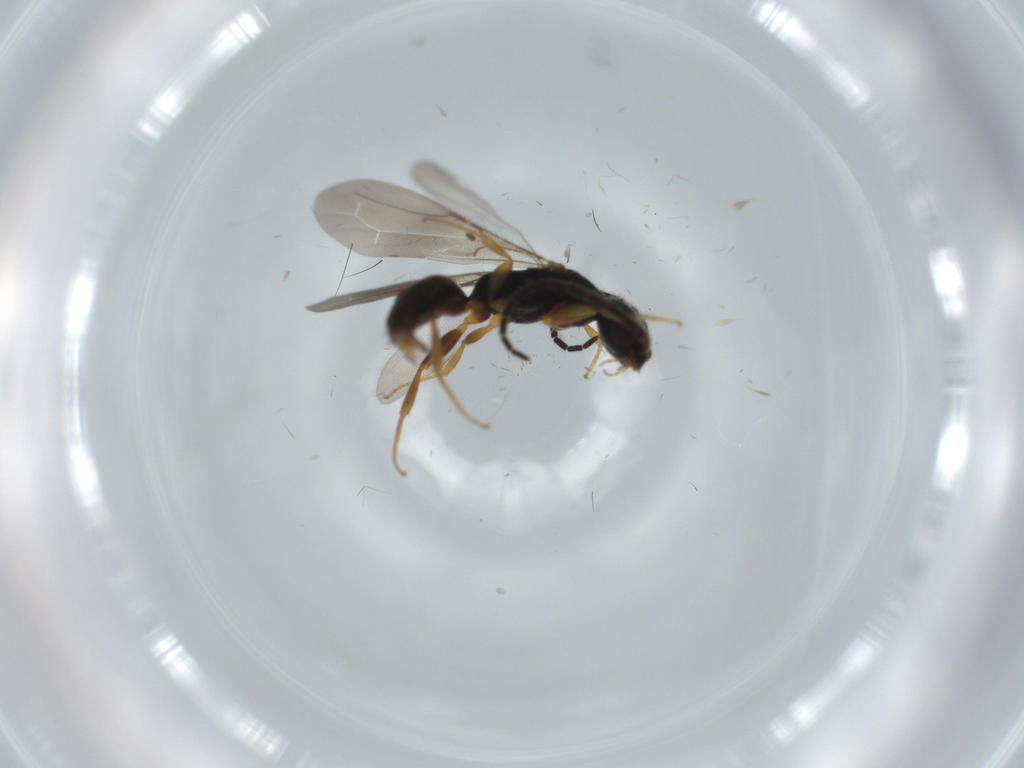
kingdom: Animalia
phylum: Arthropoda
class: Insecta
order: Hymenoptera
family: Bethylidae
